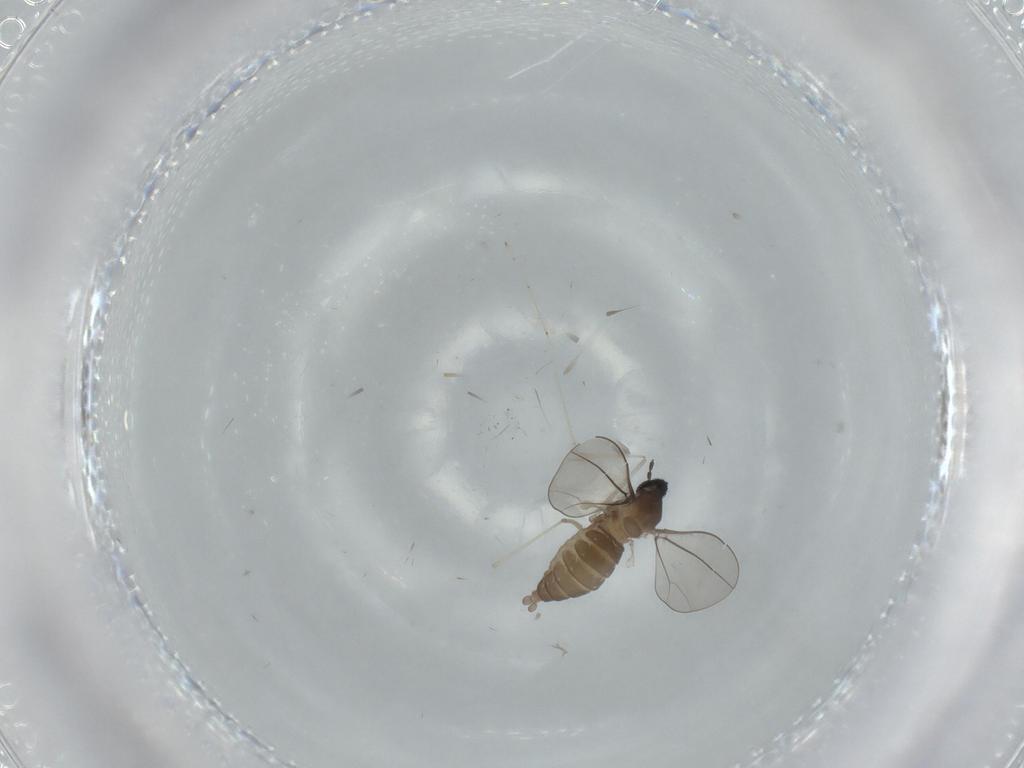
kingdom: Animalia
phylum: Arthropoda
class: Insecta
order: Diptera
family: Cecidomyiidae
